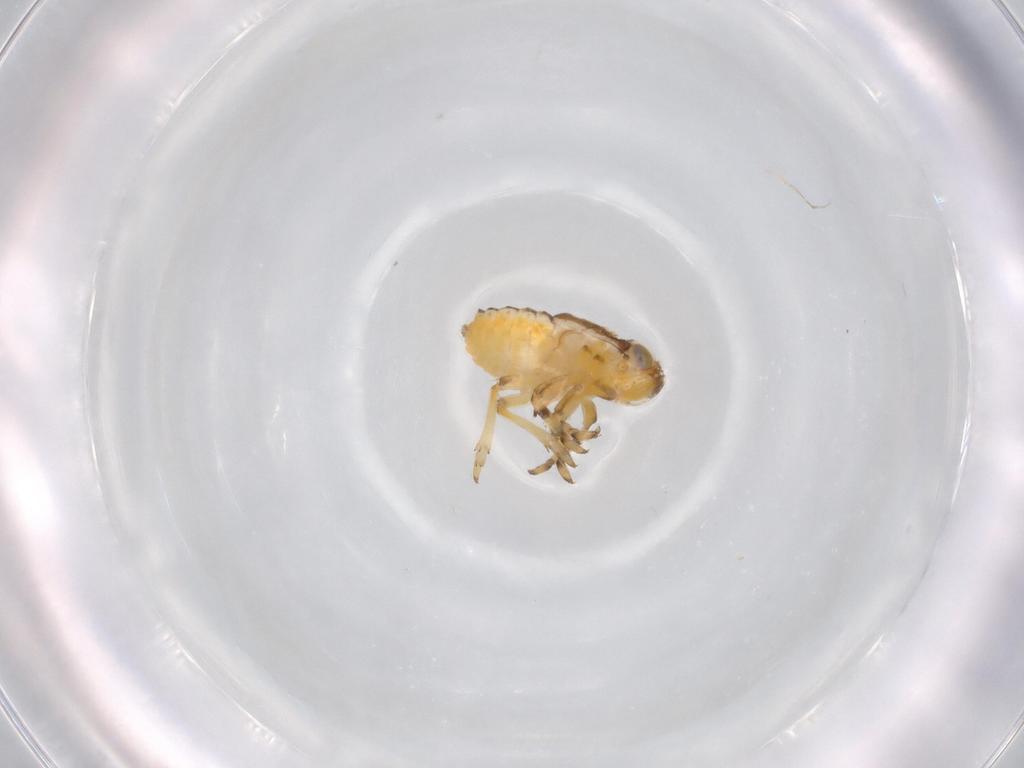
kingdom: Animalia
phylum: Arthropoda
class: Insecta
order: Hemiptera
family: Issidae
